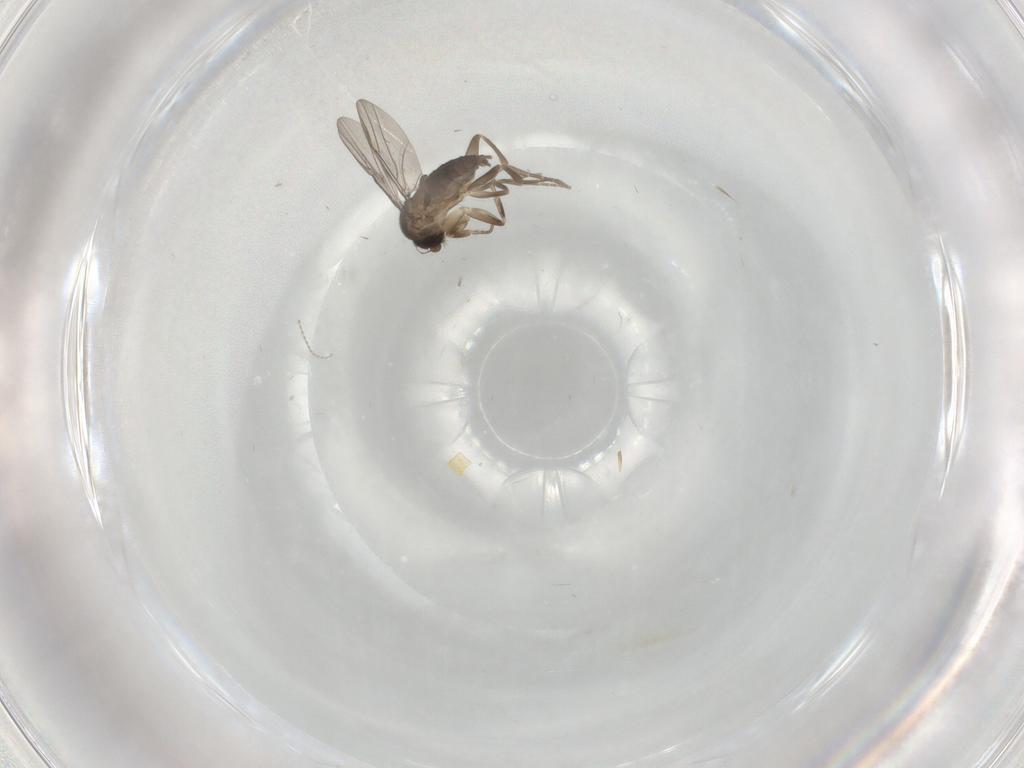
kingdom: Animalia
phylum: Arthropoda
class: Insecta
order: Diptera
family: Cecidomyiidae
